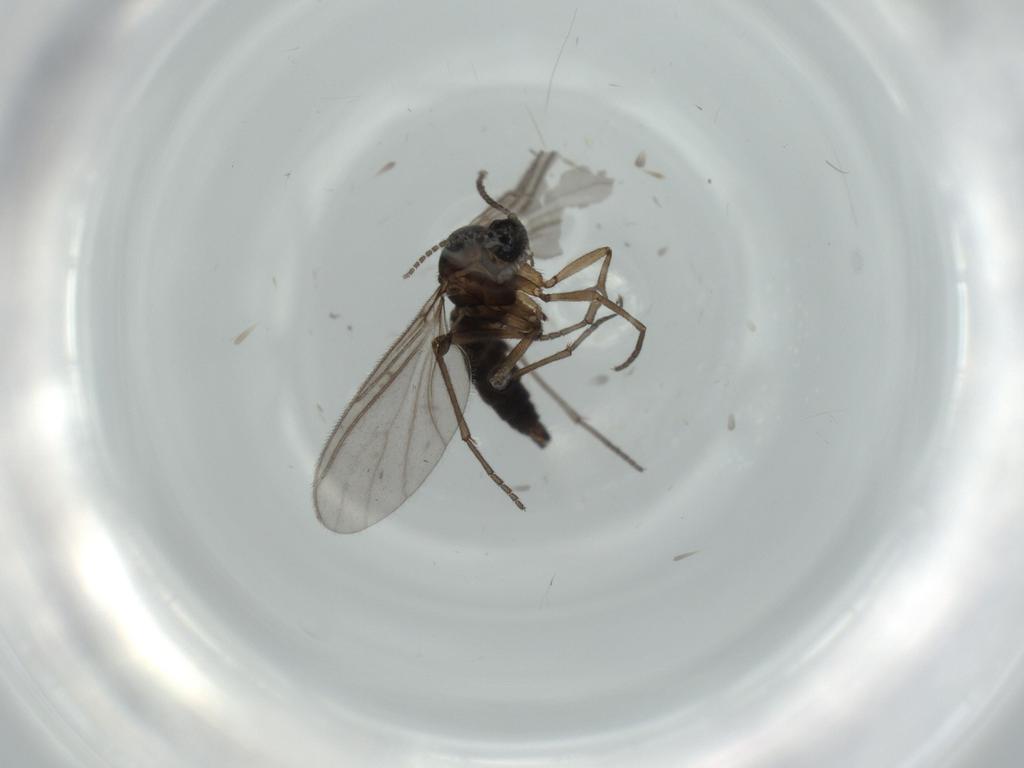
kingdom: Animalia
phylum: Arthropoda
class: Insecta
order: Diptera
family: Sciaridae
